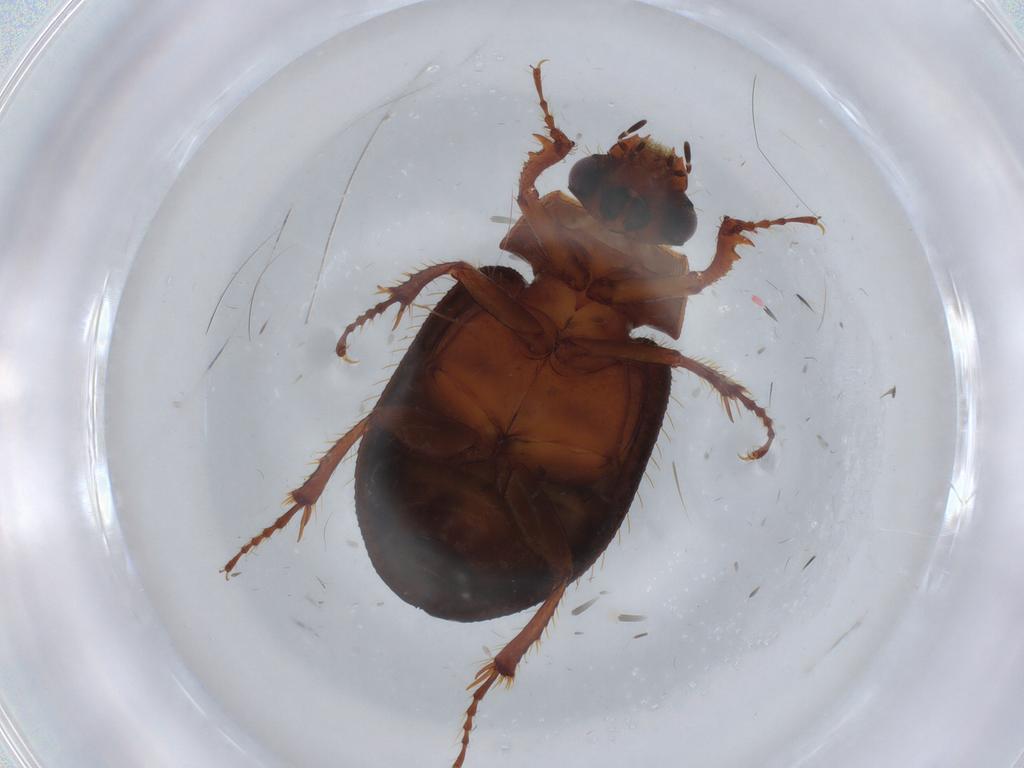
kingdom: Animalia
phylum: Arthropoda
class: Insecta
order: Coleoptera
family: Hybosoridae
